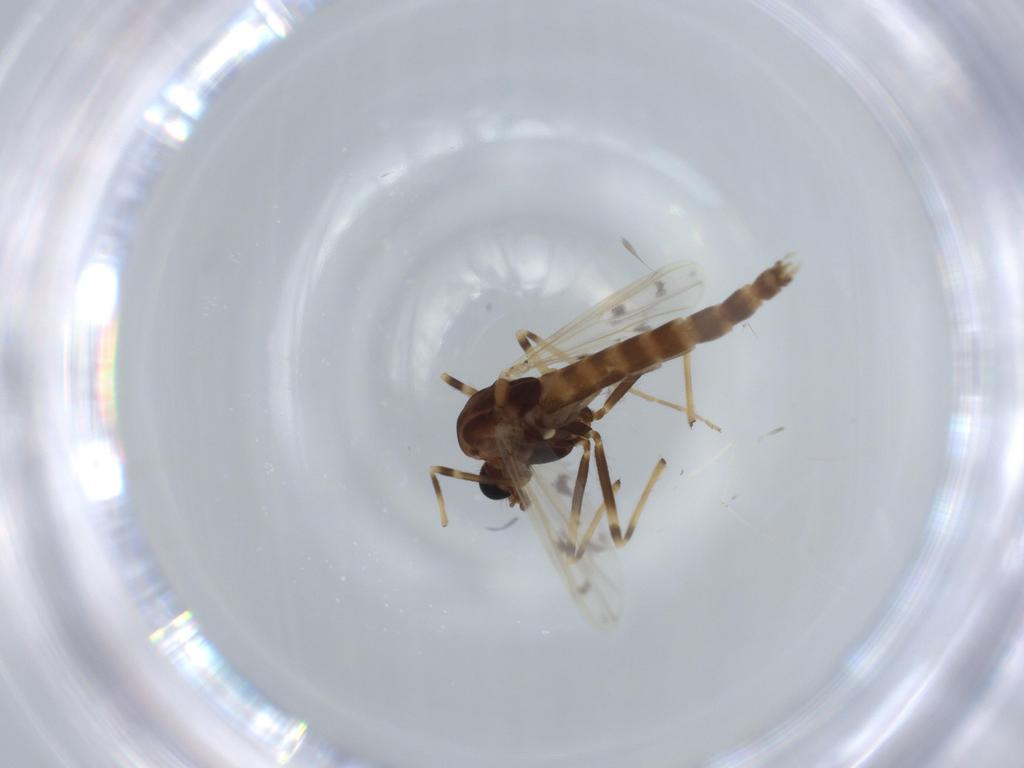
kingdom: Animalia
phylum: Arthropoda
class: Insecta
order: Diptera
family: Chironomidae
